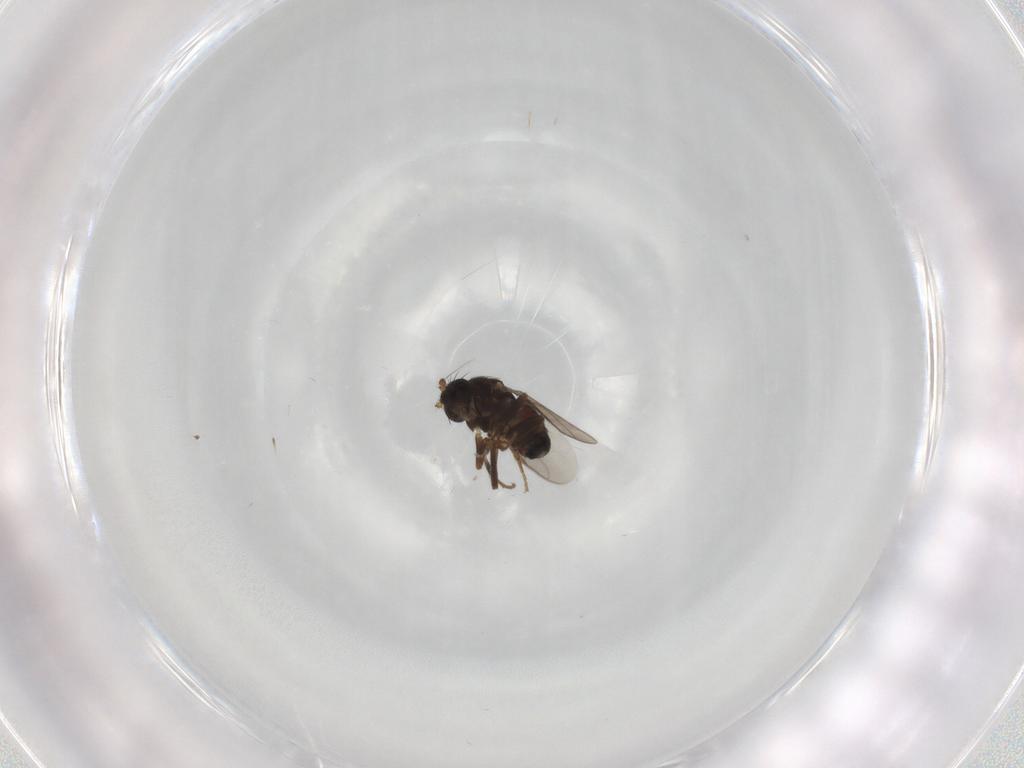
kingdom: Animalia
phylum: Arthropoda
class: Insecta
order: Diptera
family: Sphaeroceridae
